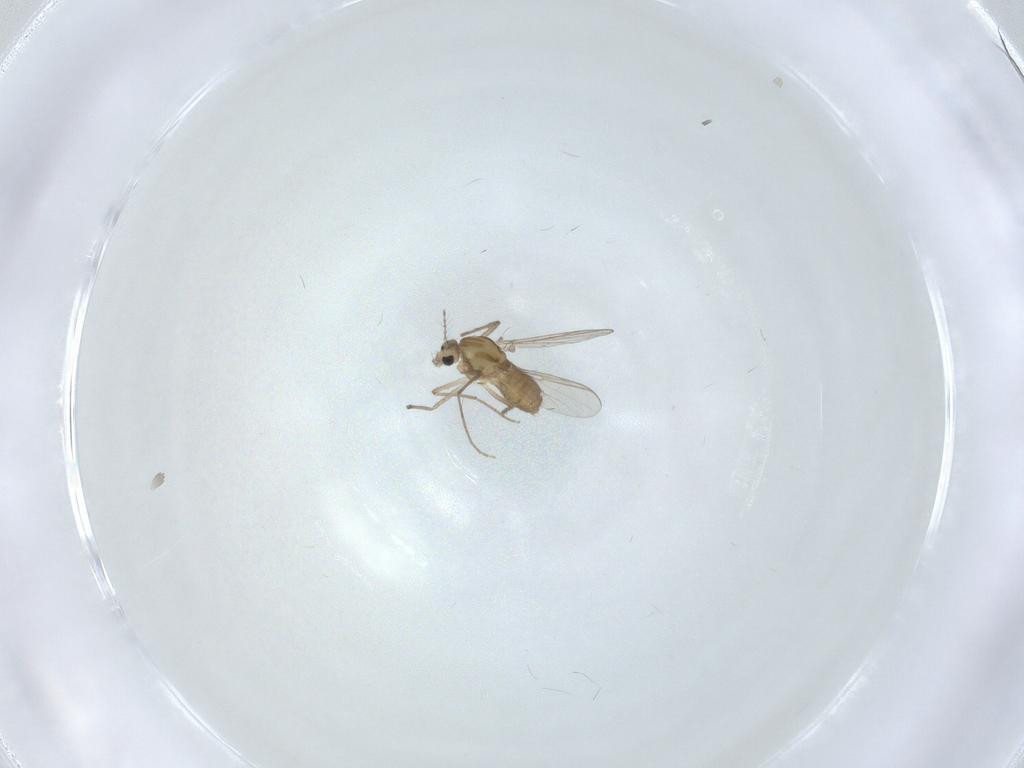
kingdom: Animalia
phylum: Arthropoda
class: Insecta
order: Diptera
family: Chironomidae
